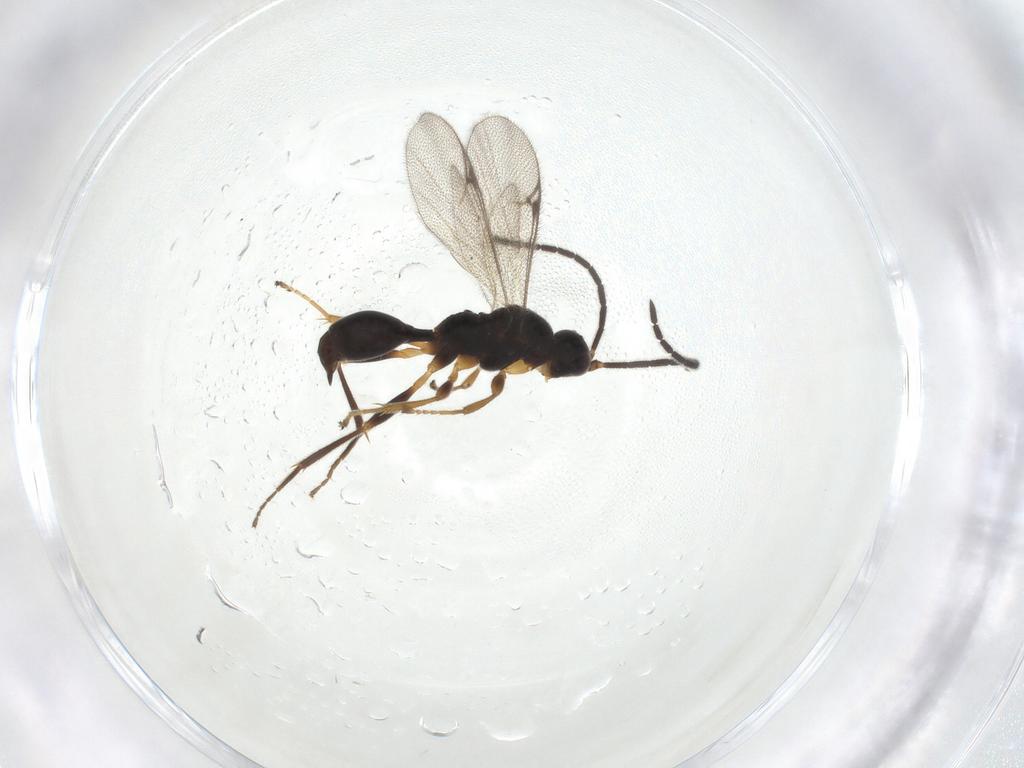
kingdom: Animalia
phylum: Arthropoda
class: Insecta
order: Hymenoptera
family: Proctotrupidae
